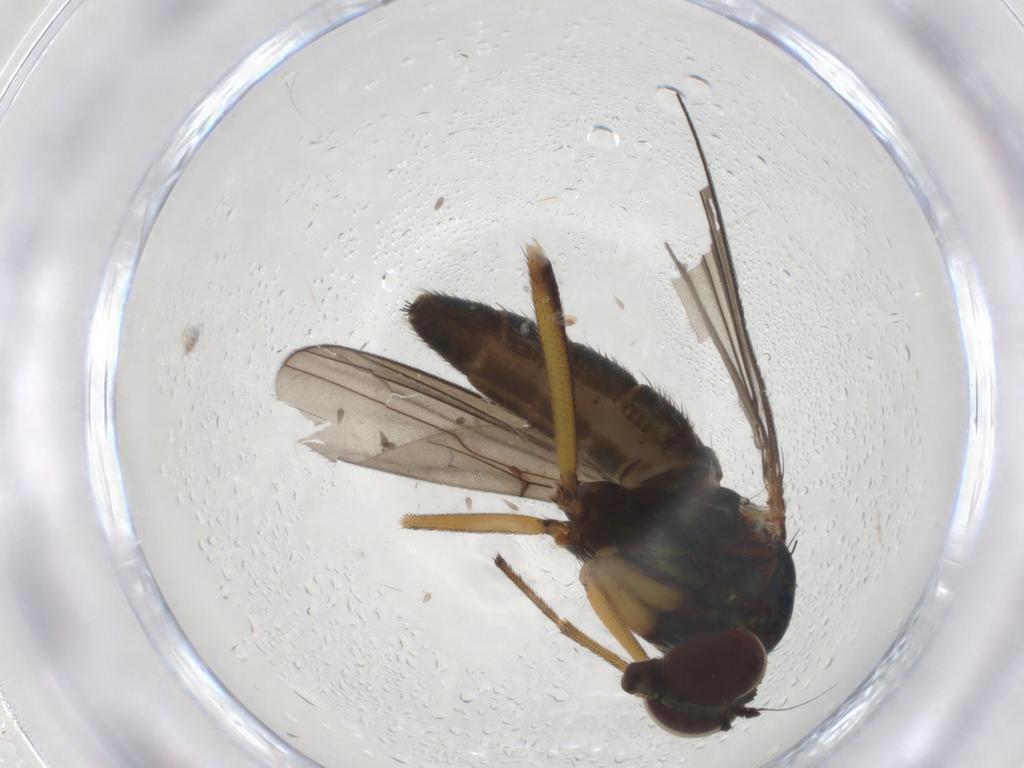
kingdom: Animalia
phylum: Arthropoda
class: Insecta
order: Diptera
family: Dolichopodidae
